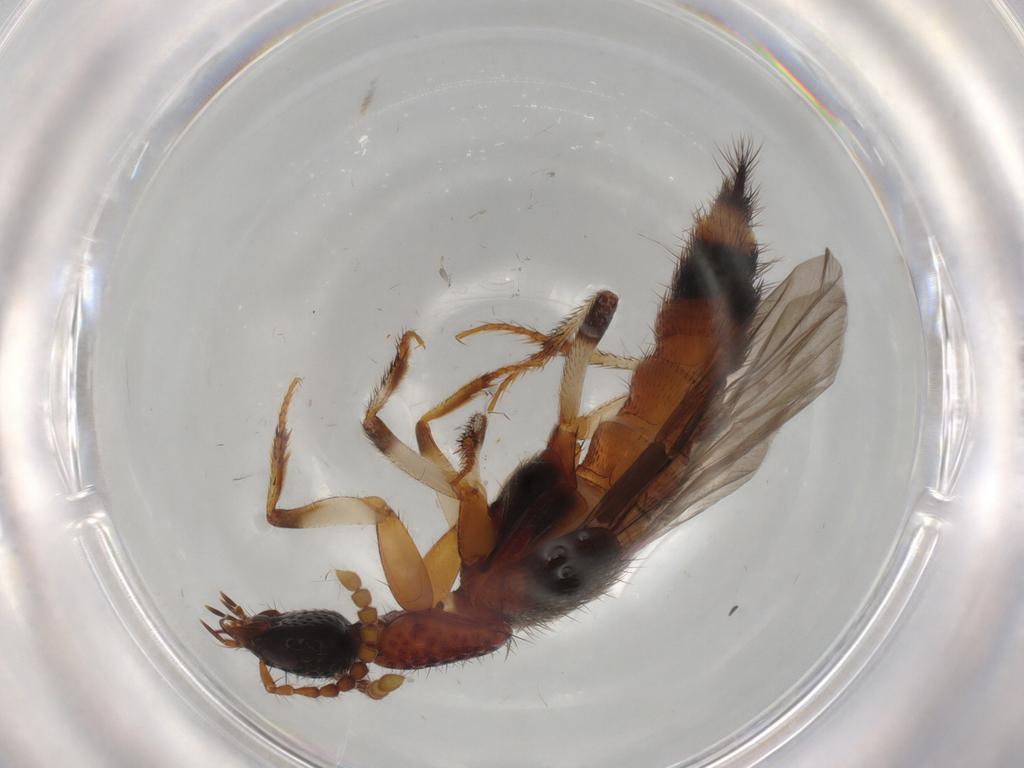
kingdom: Animalia
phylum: Arthropoda
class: Insecta
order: Coleoptera
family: Staphylinidae
